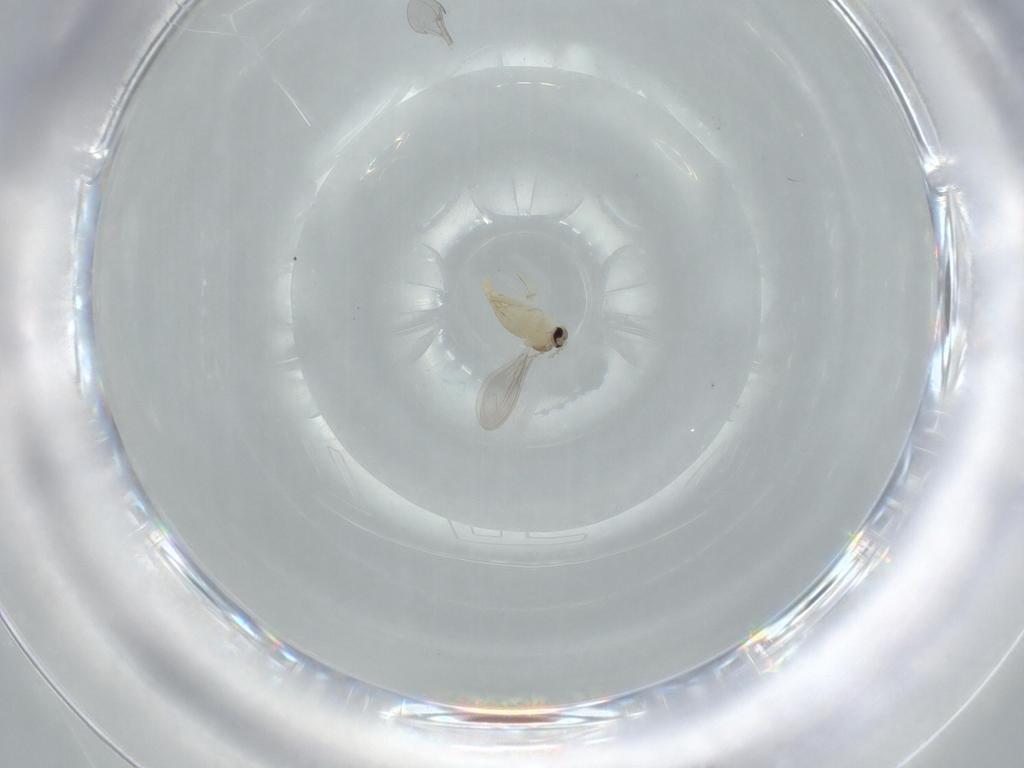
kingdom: Animalia
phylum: Arthropoda
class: Insecta
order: Diptera
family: Cecidomyiidae
